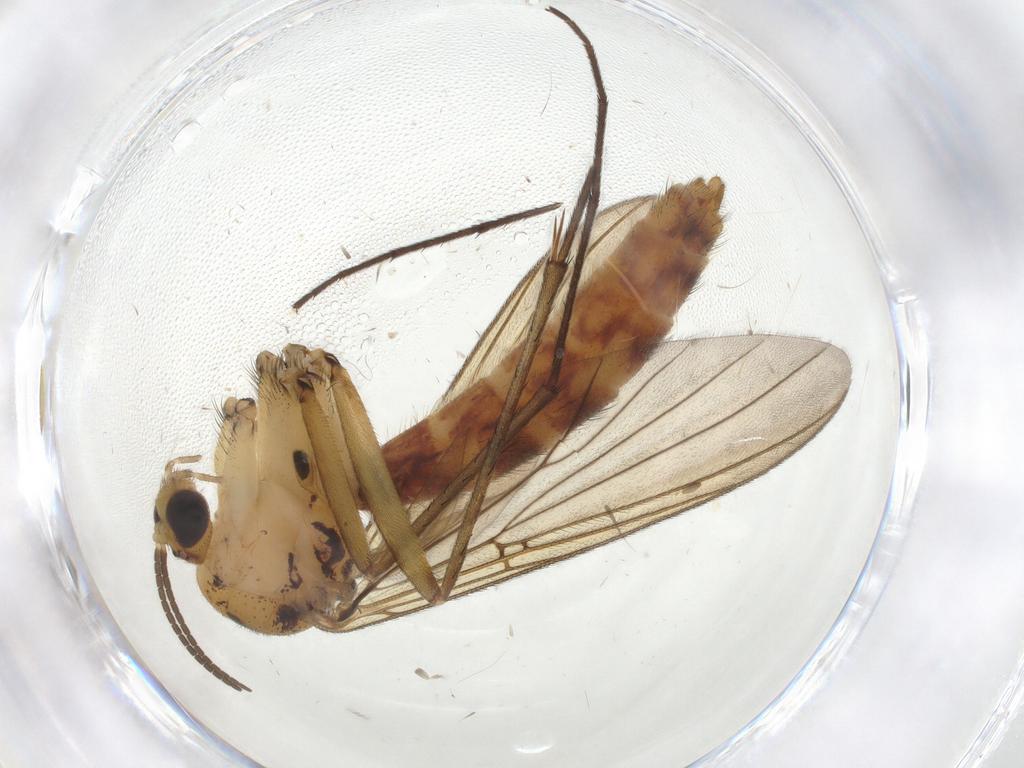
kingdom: Animalia
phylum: Arthropoda
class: Insecta
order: Diptera
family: Mycetophilidae
